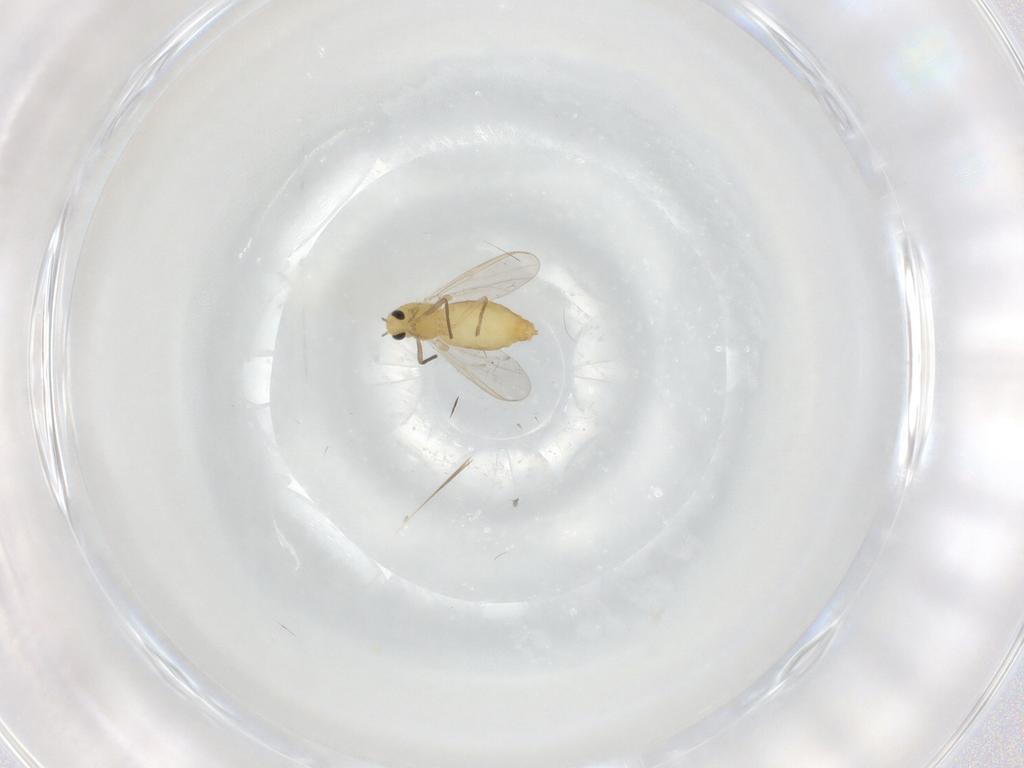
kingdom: Animalia
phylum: Arthropoda
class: Insecta
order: Diptera
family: Chironomidae
